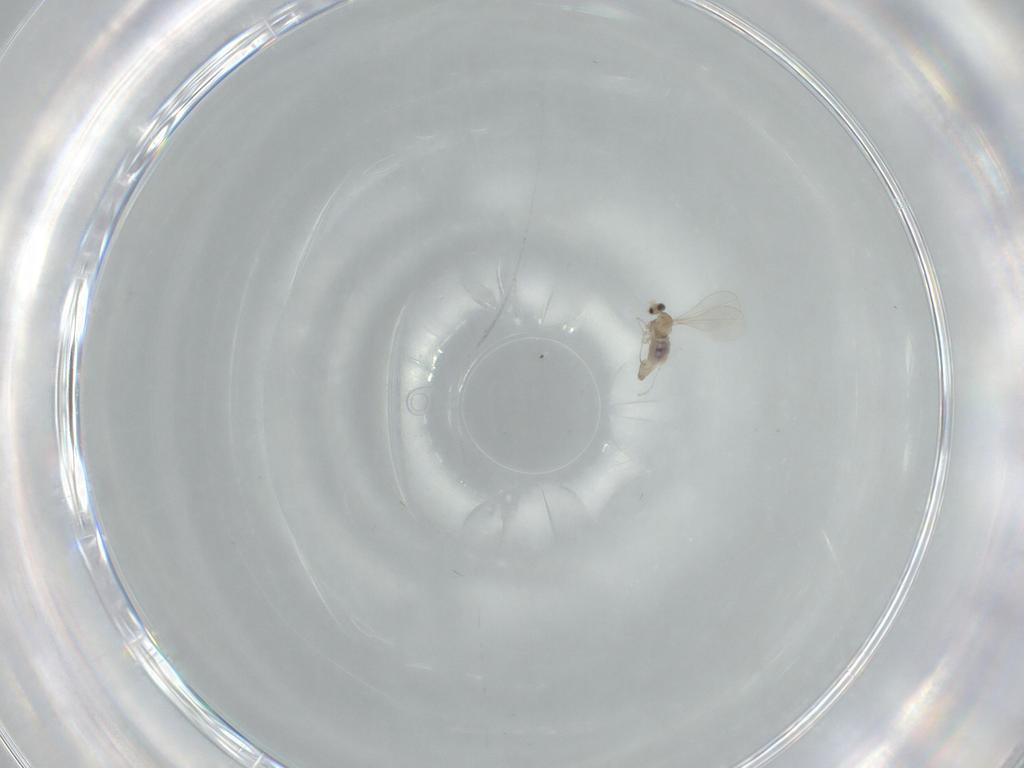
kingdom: Animalia
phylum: Arthropoda
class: Insecta
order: Diptera
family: Cecidomyiidae
